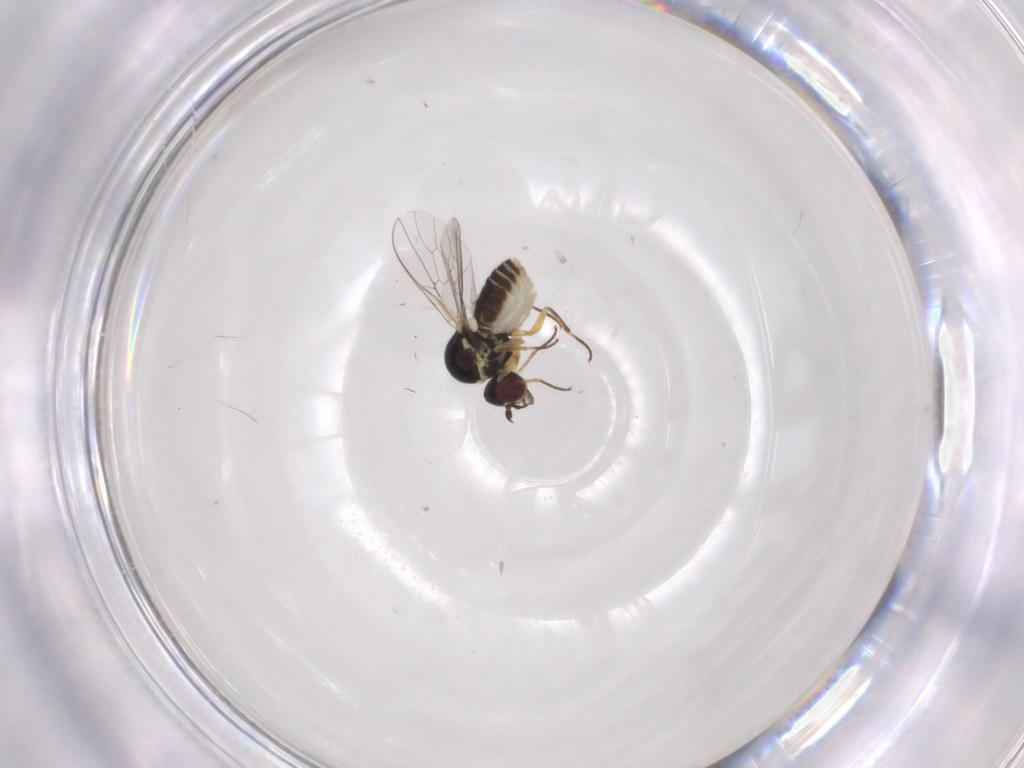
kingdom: Animalia
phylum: Arthropoda
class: Insecta
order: Diptera
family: Mythicomyiidae
